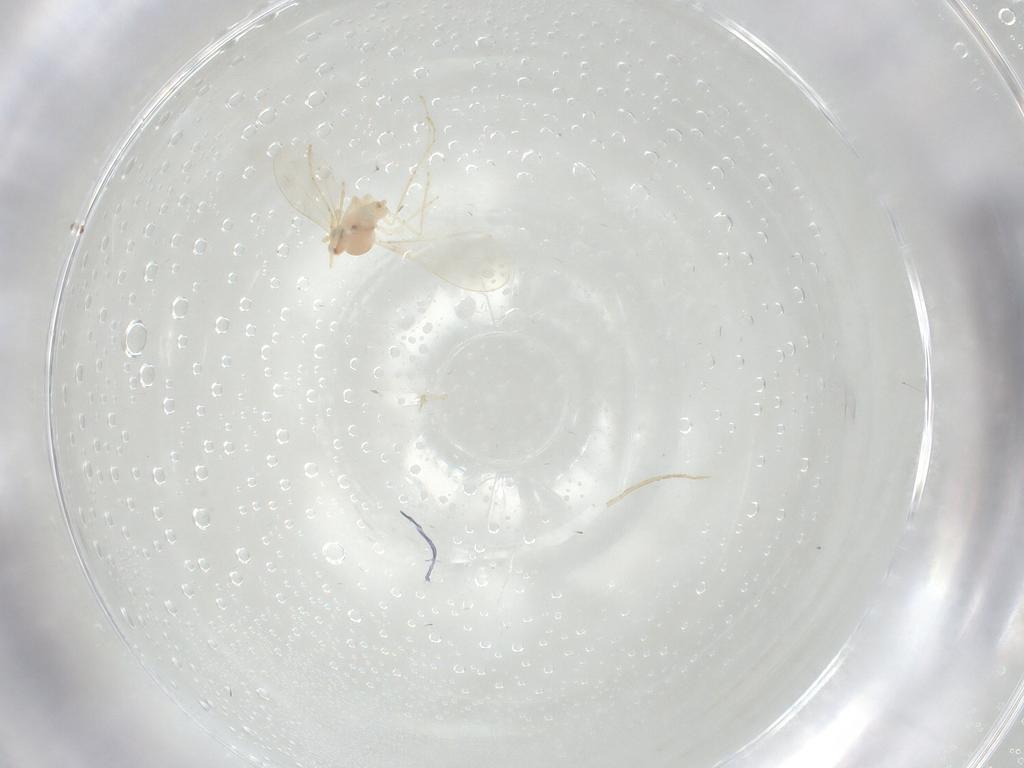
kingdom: Animalia
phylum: Arthropoda
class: Insecta
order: Diptera
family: Cecidomyiidae
